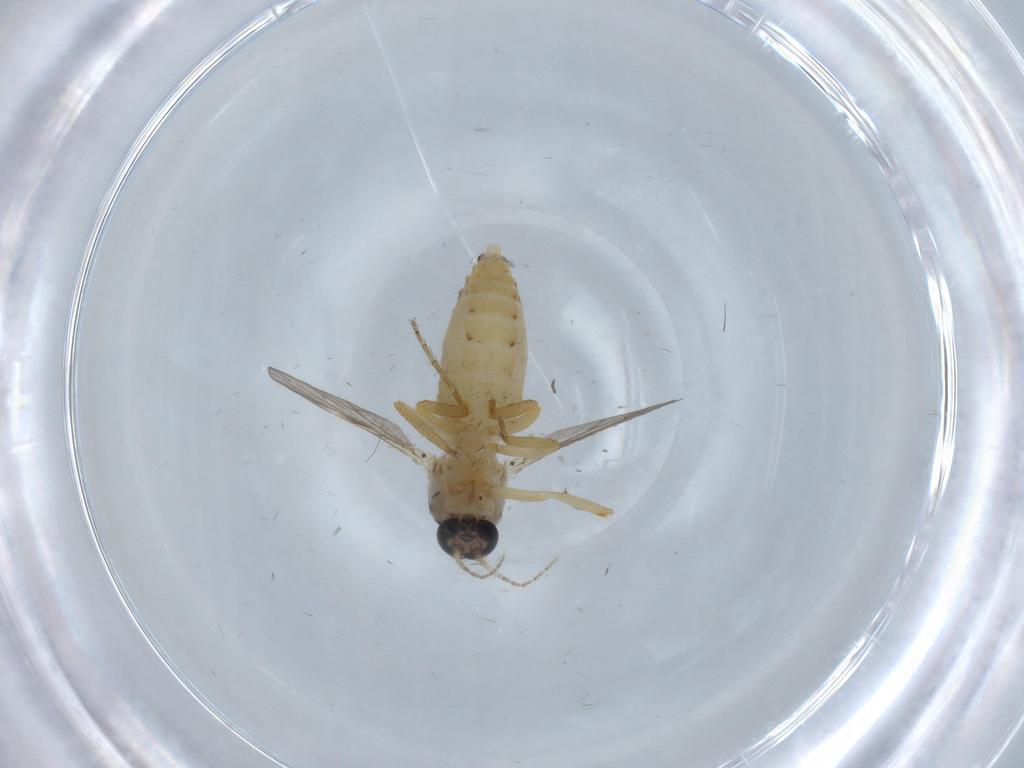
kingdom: Animalia
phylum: Arthropoda
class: Insecta
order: Diptera
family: Ceratopogonidae
